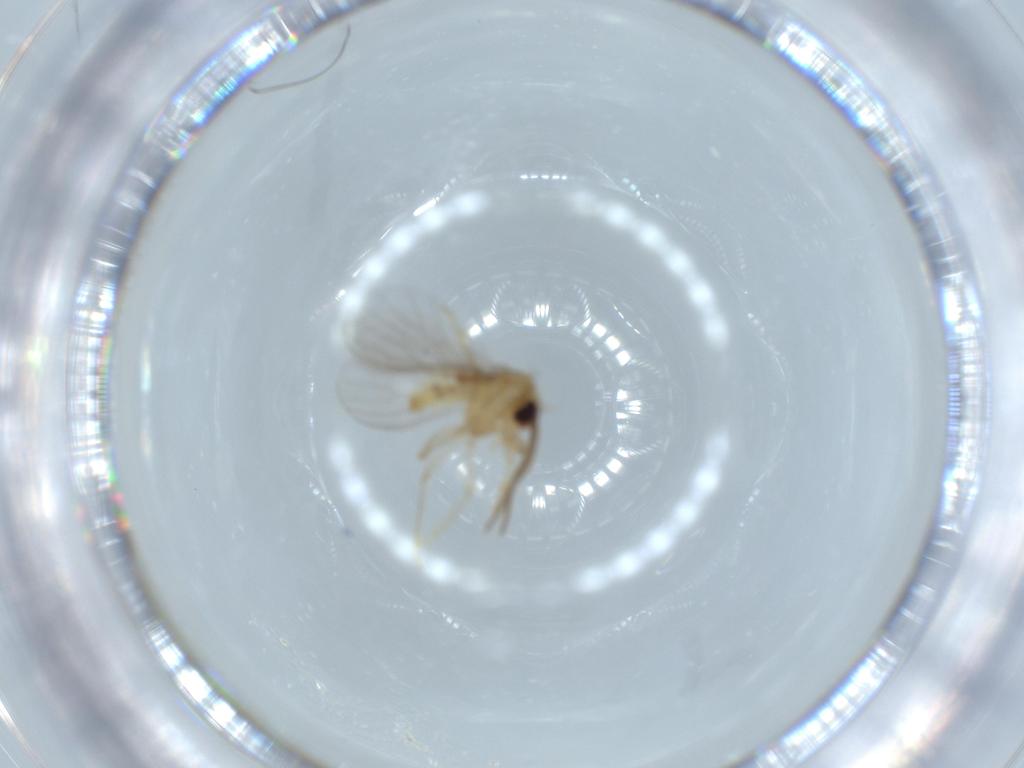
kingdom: Animalia
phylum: Arthropoda
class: Insecta
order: Neuroptera
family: Coniopterygidae
